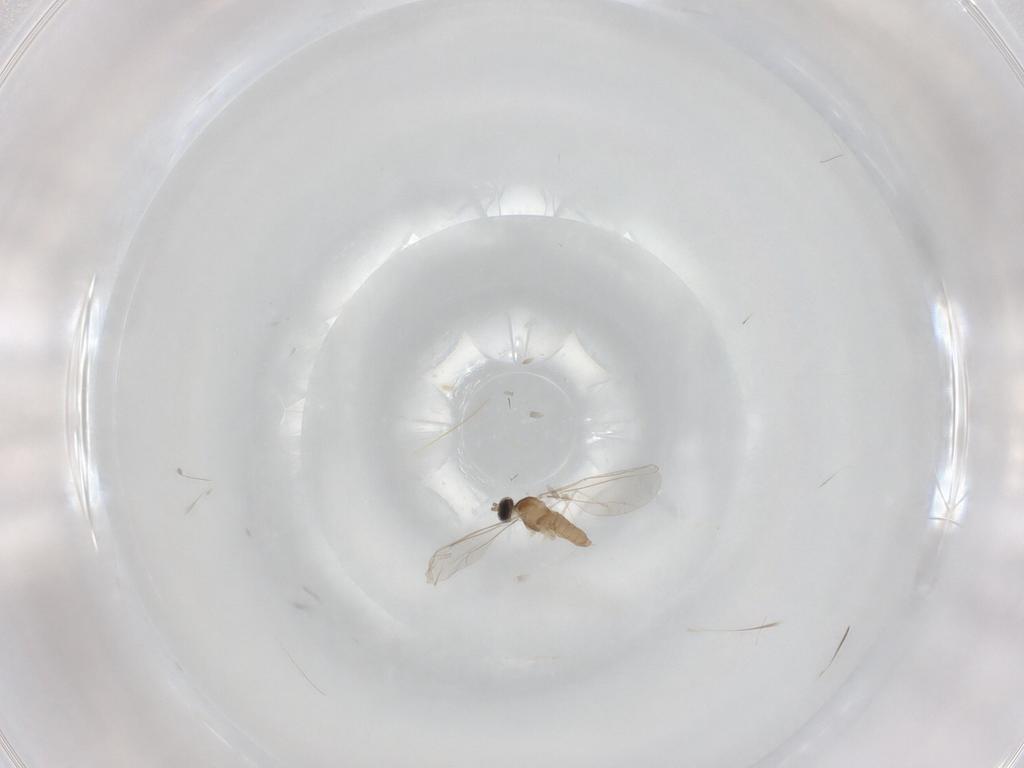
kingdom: Animalia
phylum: Arthropoda
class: Insecta
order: Diptera
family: Cecidomyiidae
